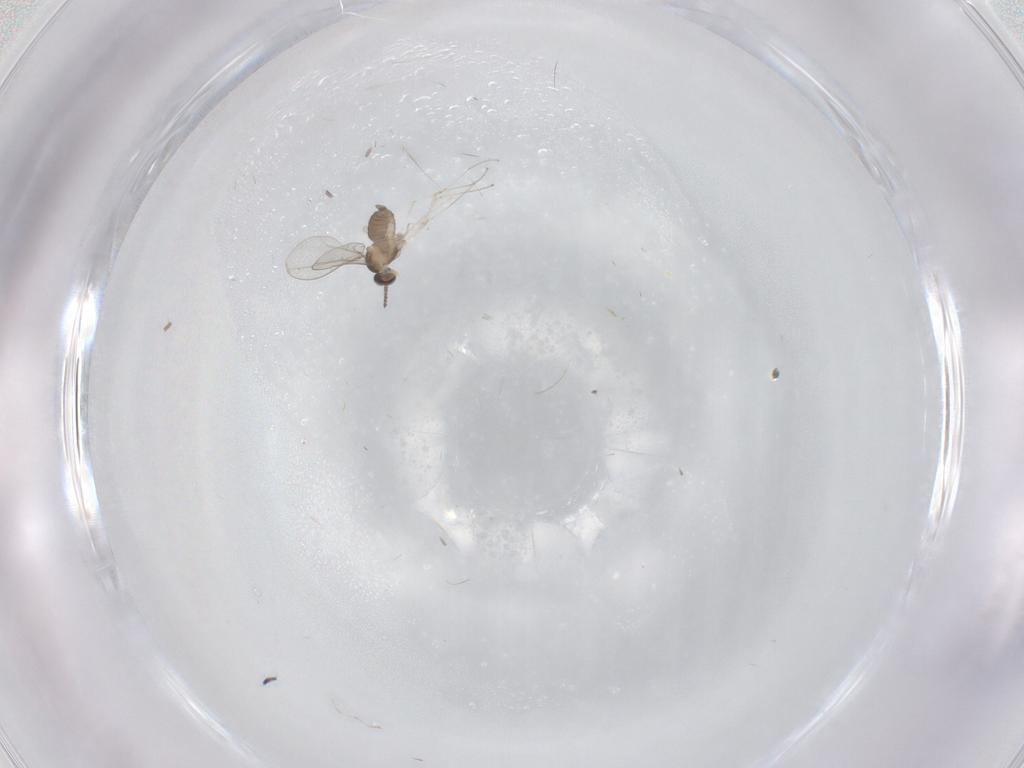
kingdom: Animalia
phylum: Arthropoda
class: Insecta
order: Diptera
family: Cecidomyiidae
